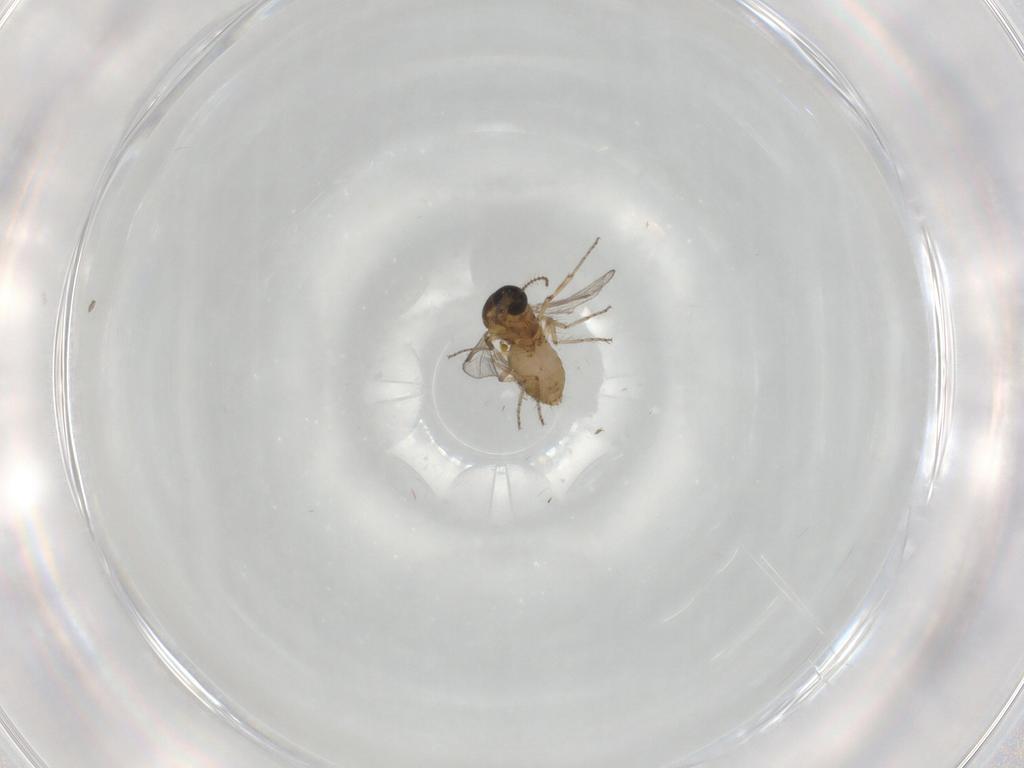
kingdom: Animalia
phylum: Arthropoda
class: Insecta
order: Diptera
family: Ceratopogonidae
